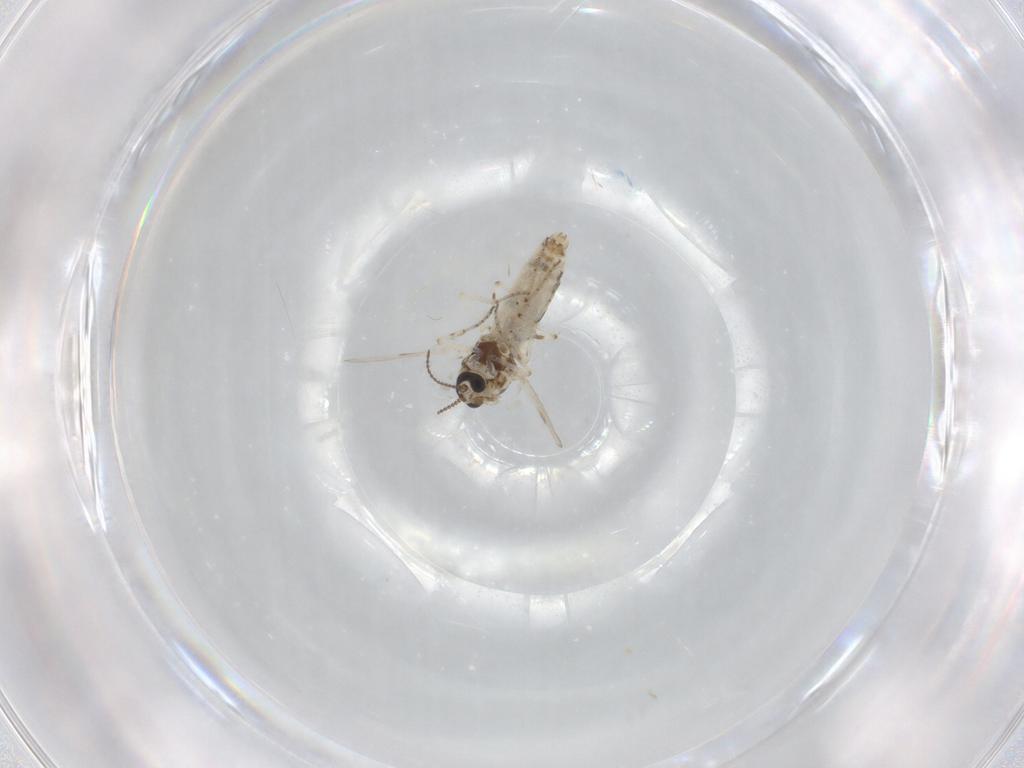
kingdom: Animalia
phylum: Arthropoda
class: Insecta
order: Diptera
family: Ceratopogonidae
